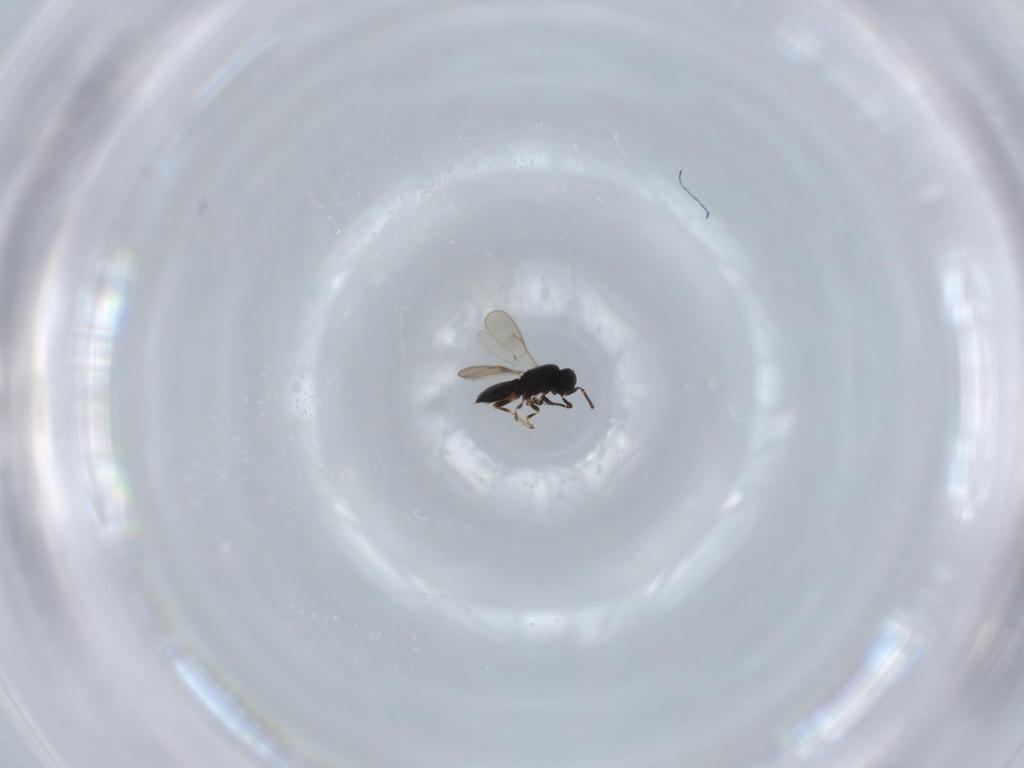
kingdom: Animalia
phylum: Arthropoda
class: Insecta
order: Hymenoptera
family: Scelionidae
